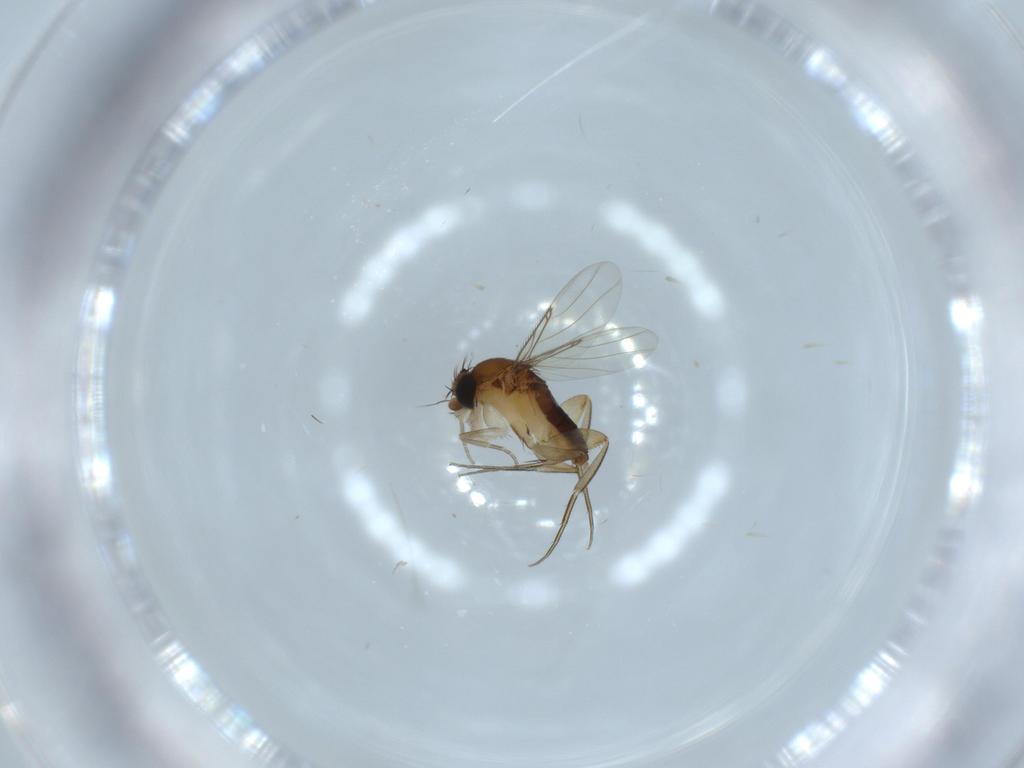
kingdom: Animalia
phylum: Arthropoda
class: Insecta
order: Diptera
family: Phoridae
